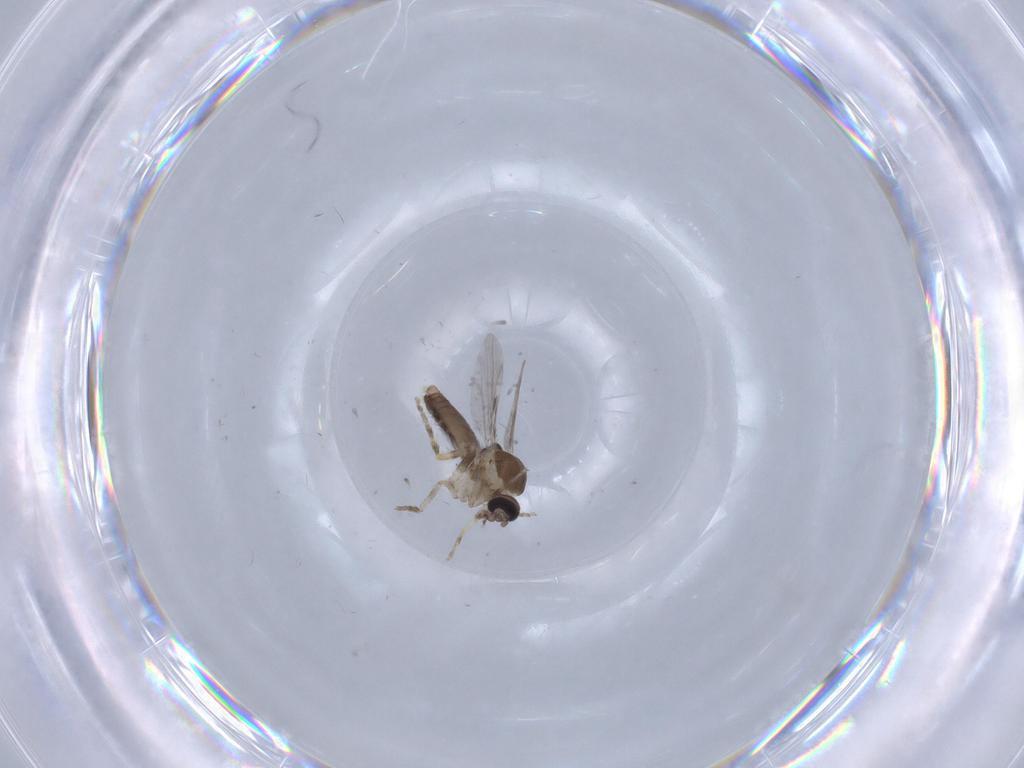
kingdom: Animalia
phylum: Arthropoda
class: Insecta
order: Diptera
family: Ceratopogonidae
